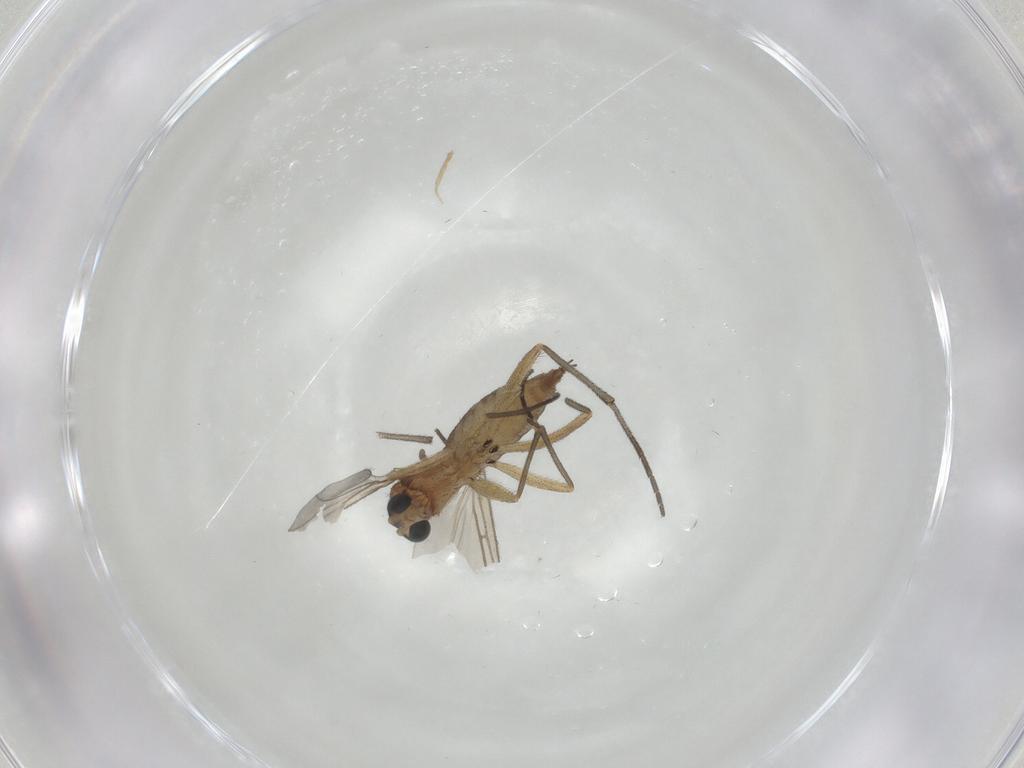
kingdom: Animalia
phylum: Arthropoda
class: Insecta
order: Diptera
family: Sciaridae
